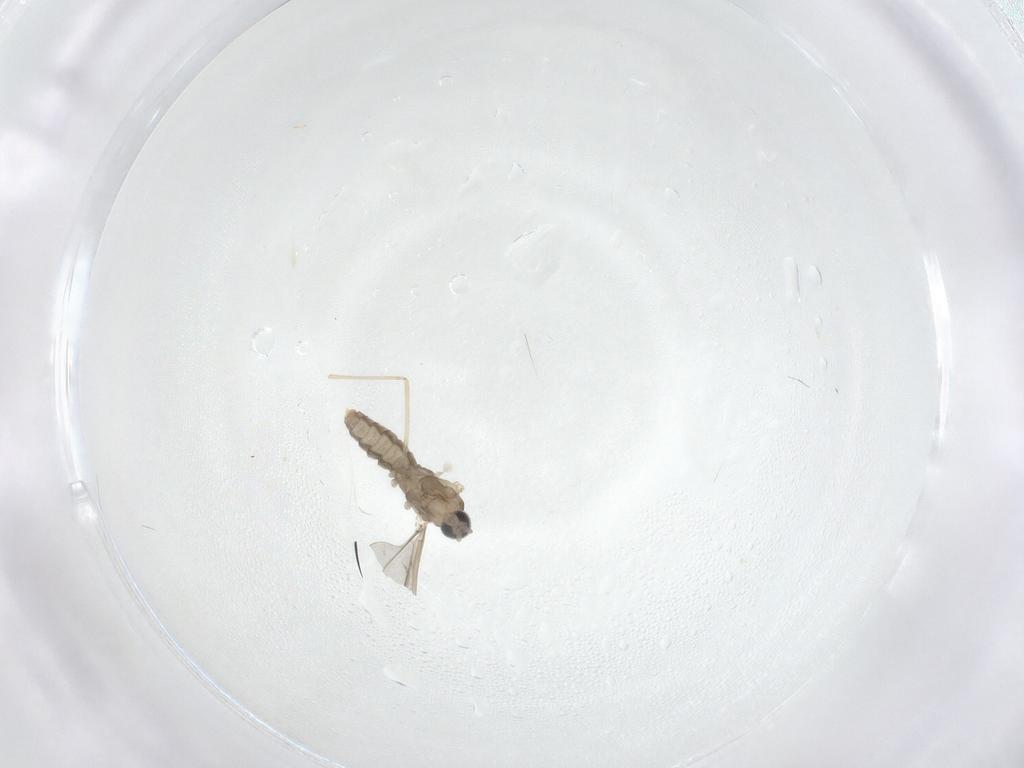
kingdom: Animalia
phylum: Arthropoda
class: Insecta
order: Diptera
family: Cecidomyiidae
